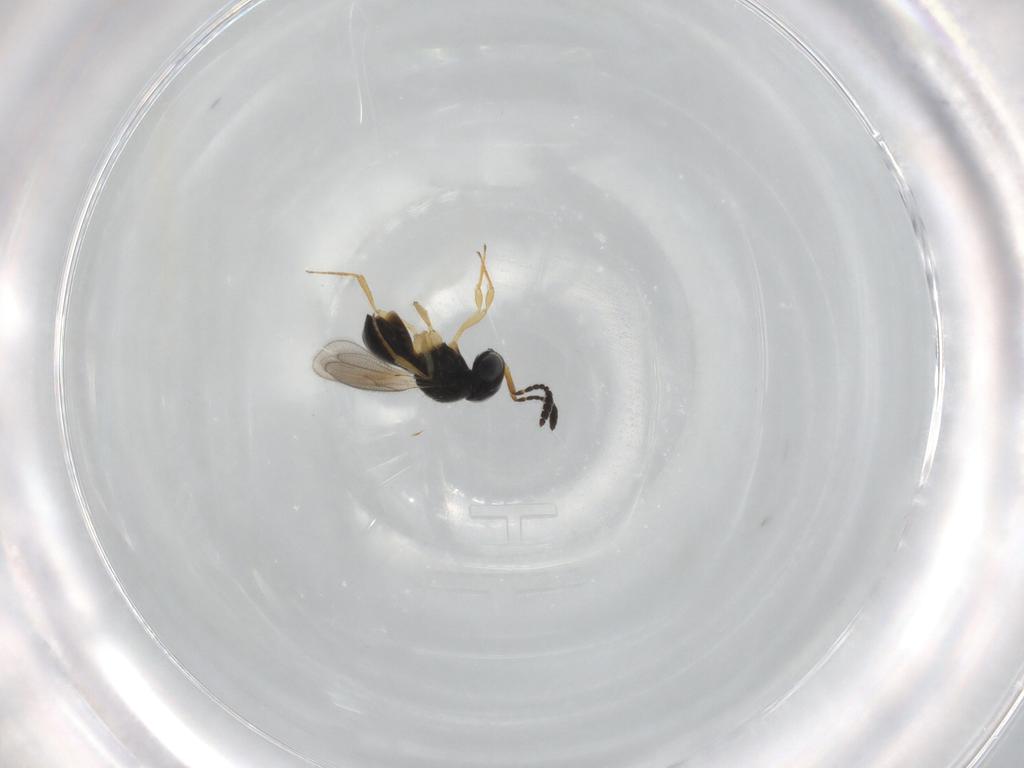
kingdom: Animalia
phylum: Arthropoda
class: Insecta
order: Hymenoptera
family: Scelionidae
